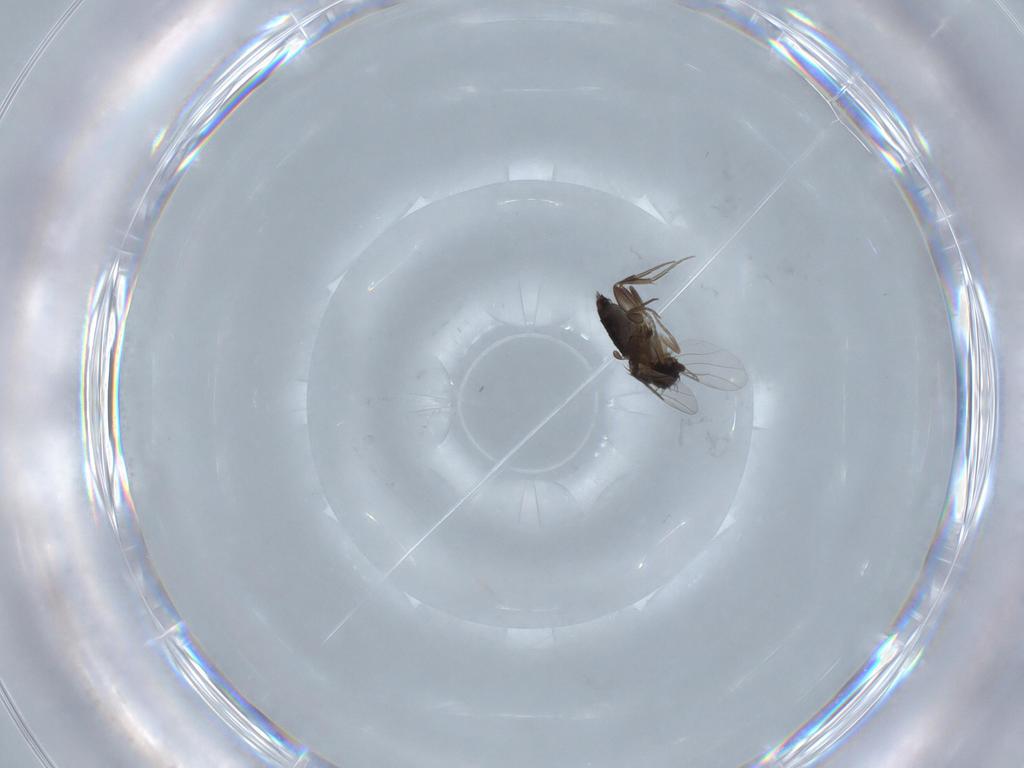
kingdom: Animalia
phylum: Arthropoda
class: Insecta
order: Diptera
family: Phoridae
